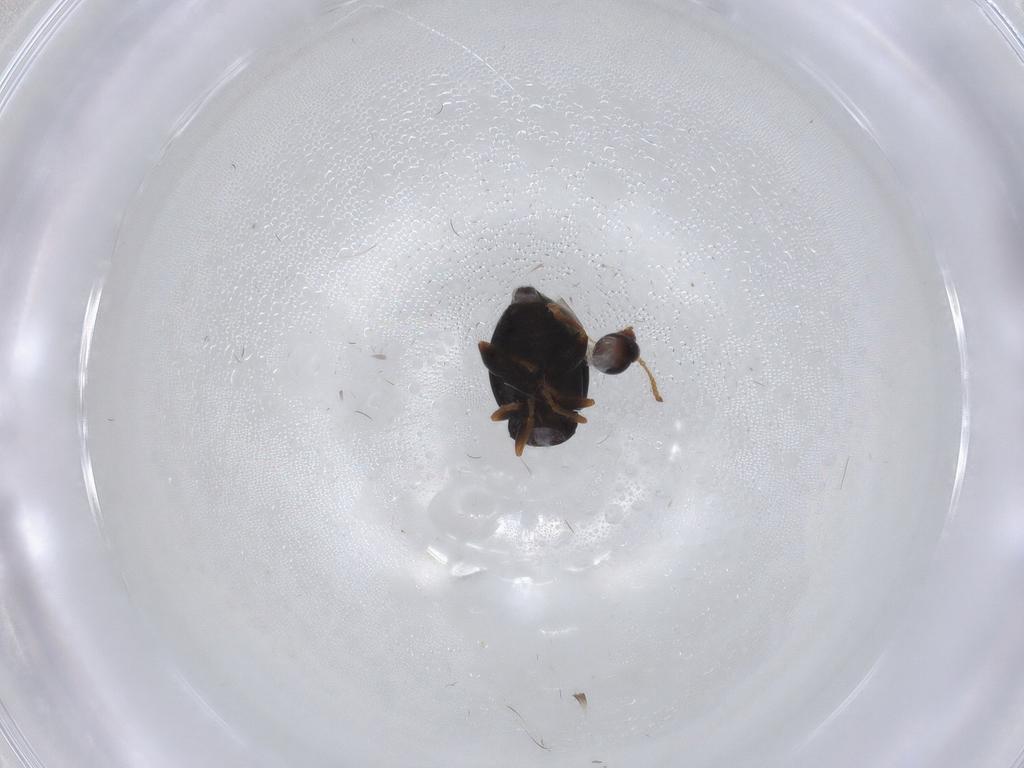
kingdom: Animalia
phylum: Arthropoda
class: Insecta
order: Coleoptera
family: Chrysomelidae
